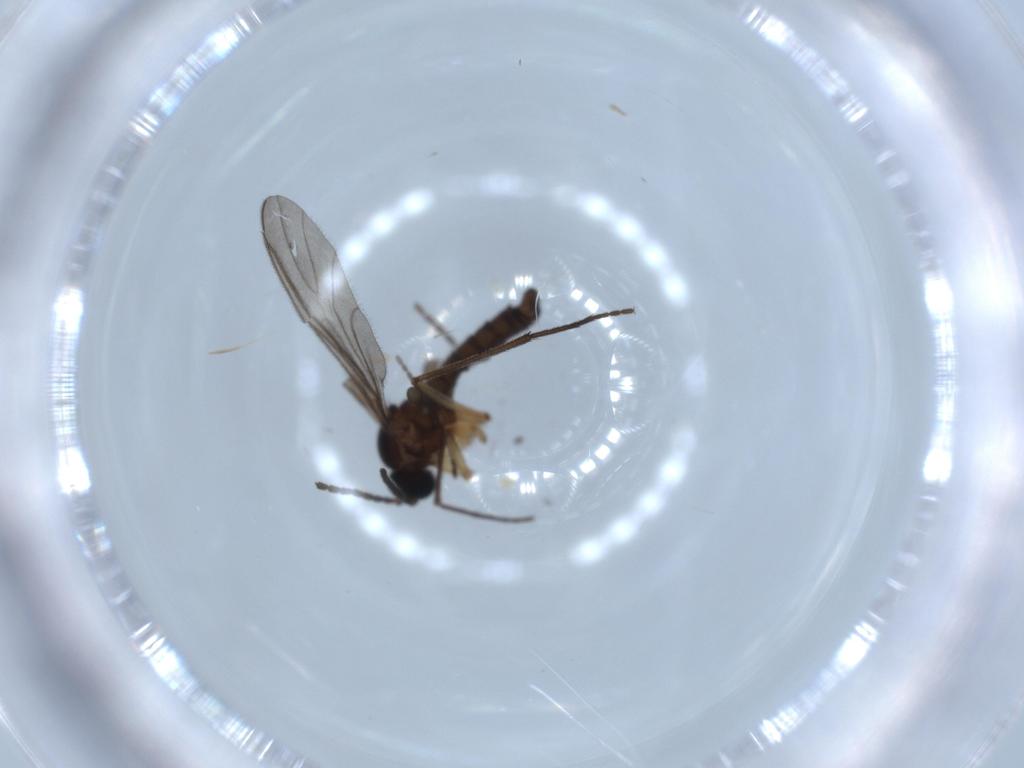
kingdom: Animalia
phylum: Arthropoda
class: Insecta
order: Diptera
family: Sciaridae
